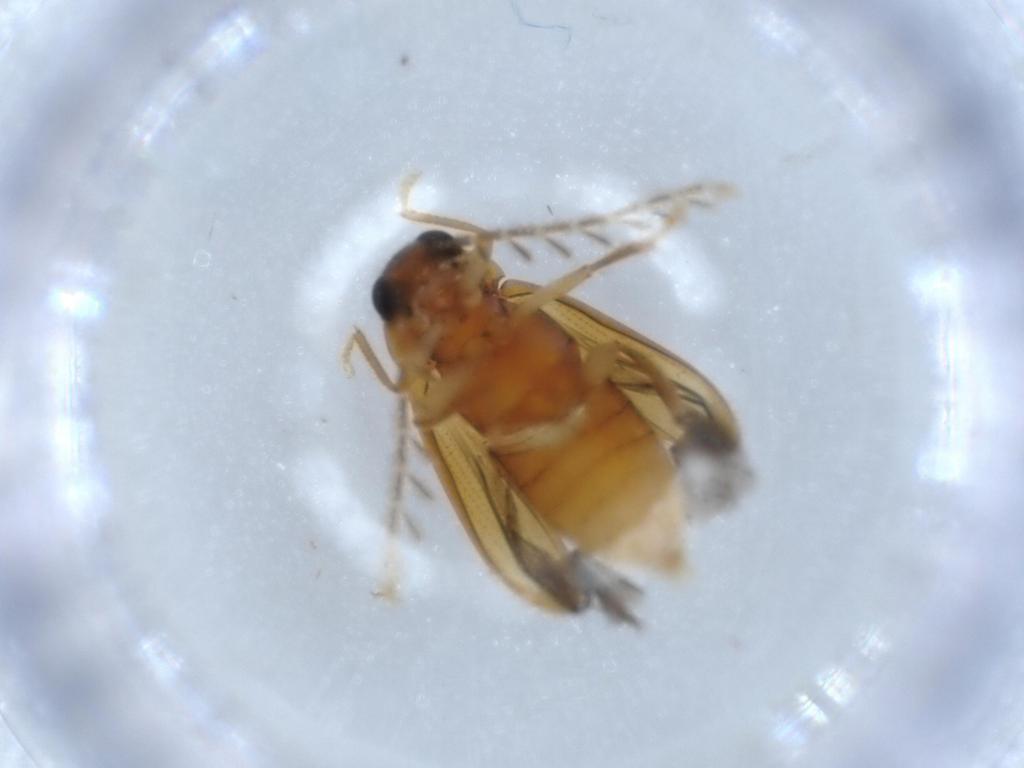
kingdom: Animalia
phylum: Arthropoda
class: Insecta
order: Coleoptera
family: Ptilodactylidae
